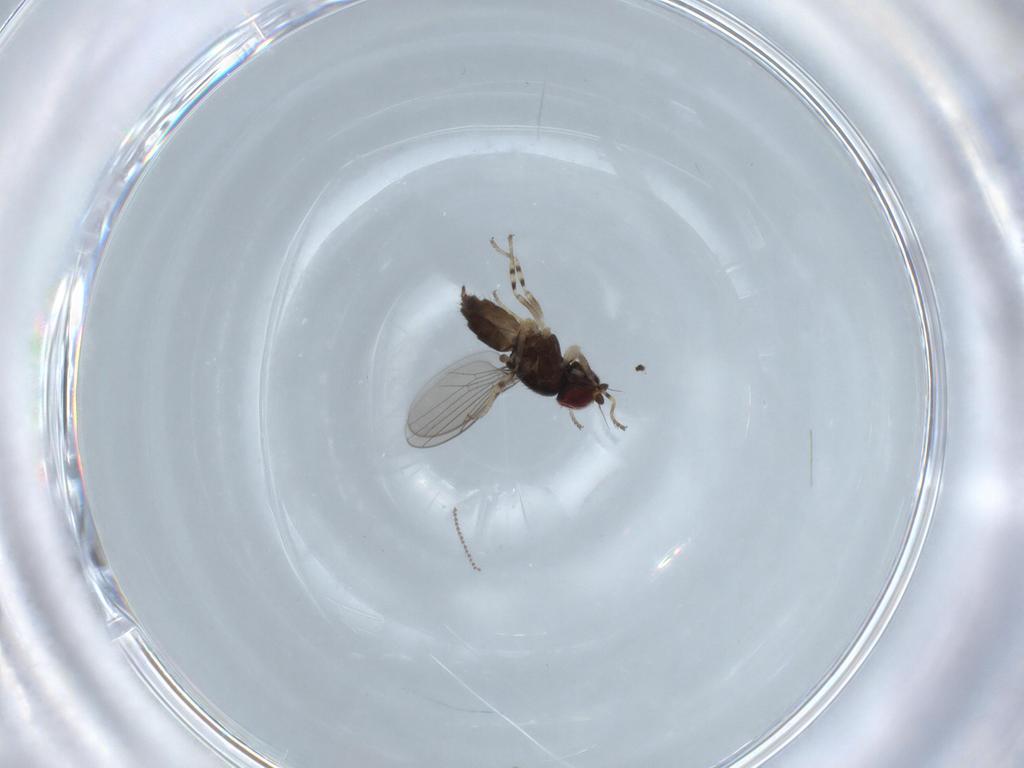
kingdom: Animalia
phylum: Arthropoda
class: Insecta
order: Diptera
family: Chloropidae
